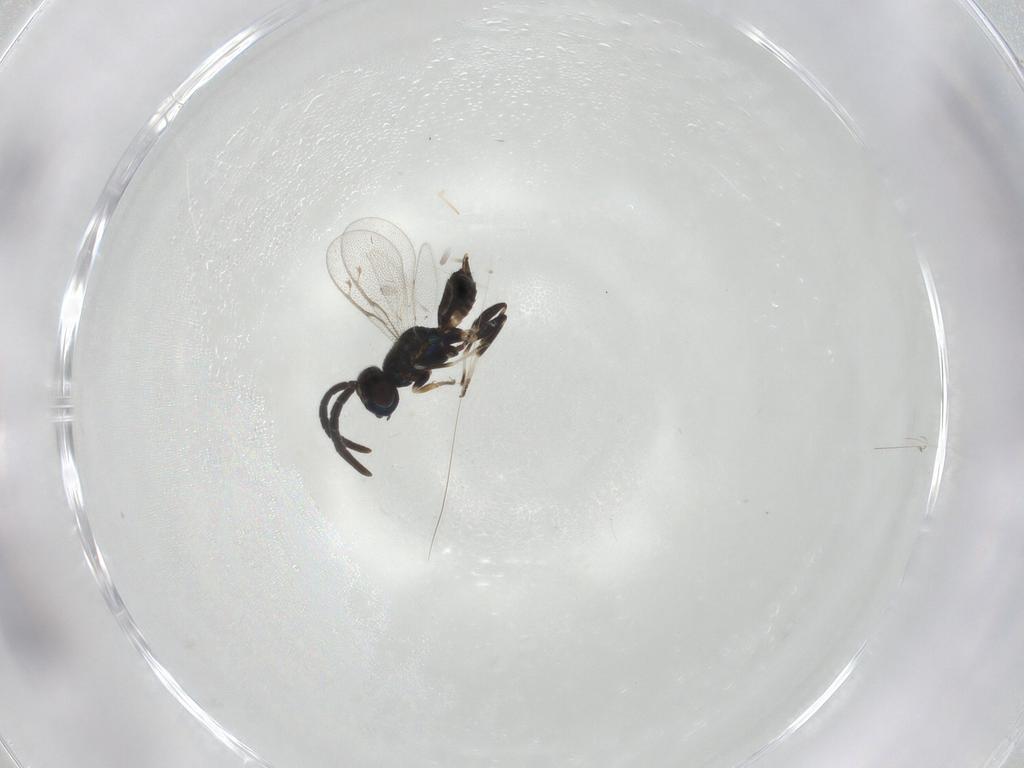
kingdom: Animalia
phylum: Arthropoda
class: Insecta
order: Hymenoptera
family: Eupelmidae
